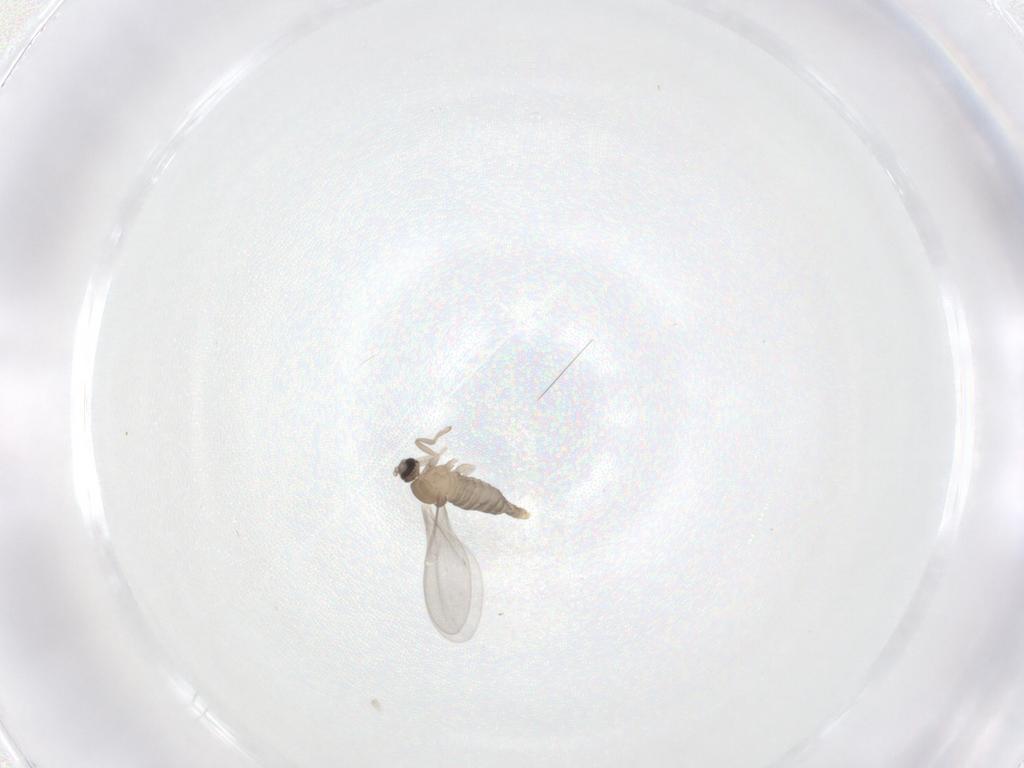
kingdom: Animalia
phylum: Arthropoda
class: Insecta
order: Diptera
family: Cecidomyiidae
